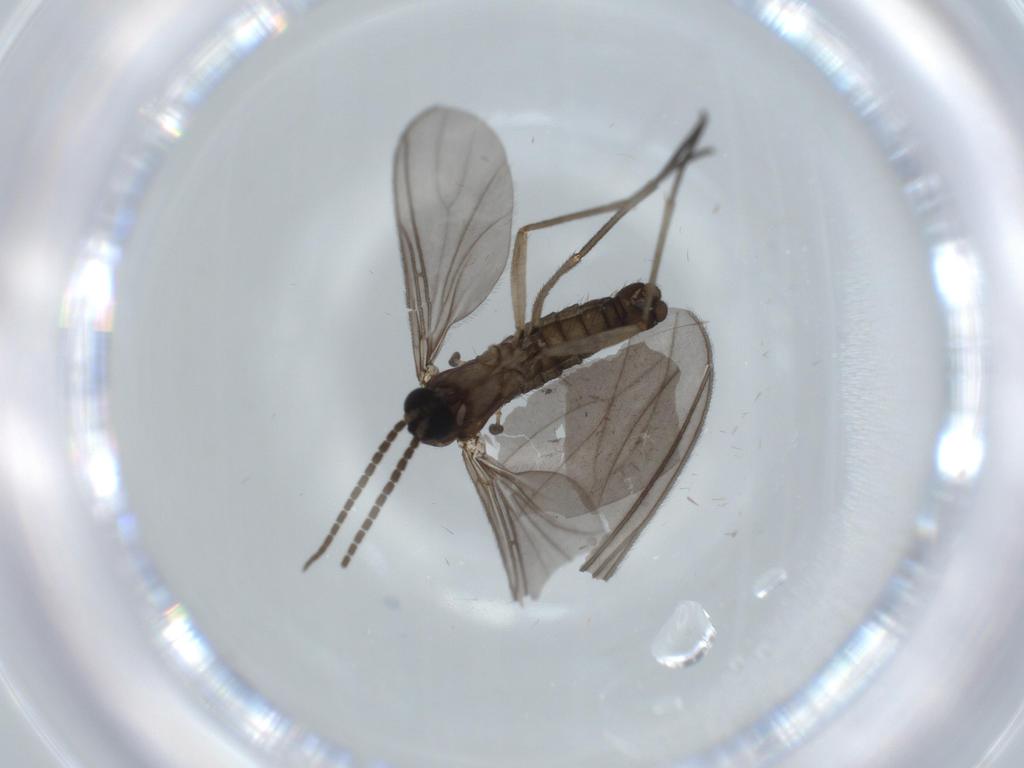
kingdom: Animalia
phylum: Arthropoda
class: Insecta
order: Diptera
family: Sciaridae
